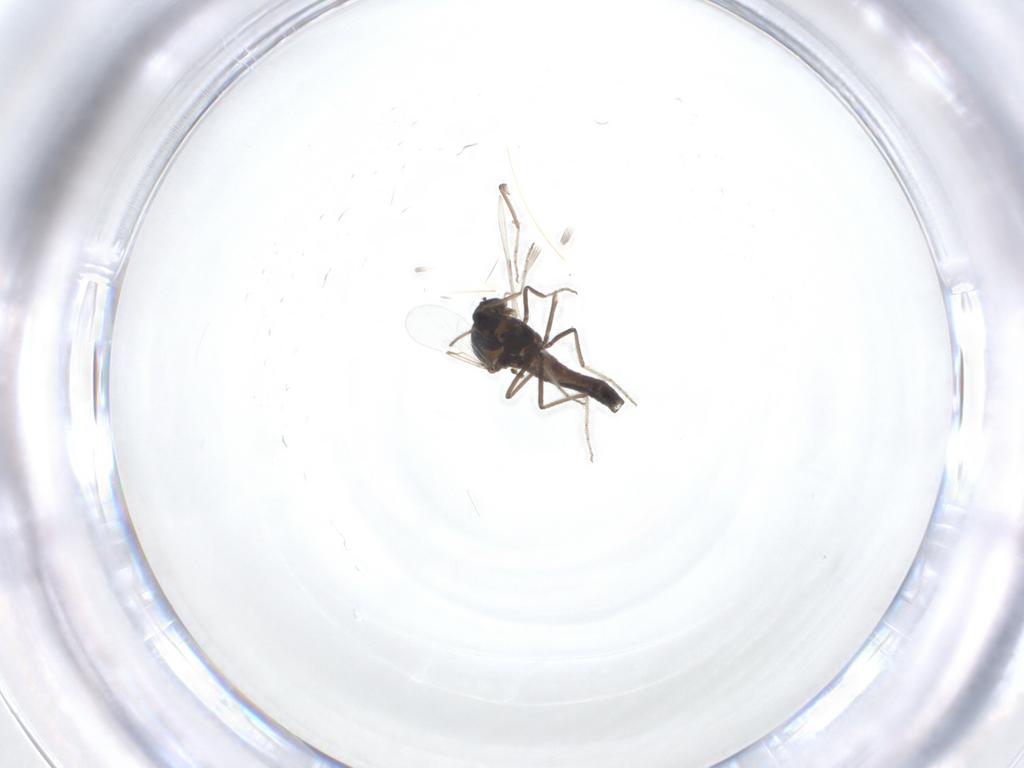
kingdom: Animalia
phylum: Arthropoda
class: Insecta
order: Diptera
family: Ceratopogonidae
